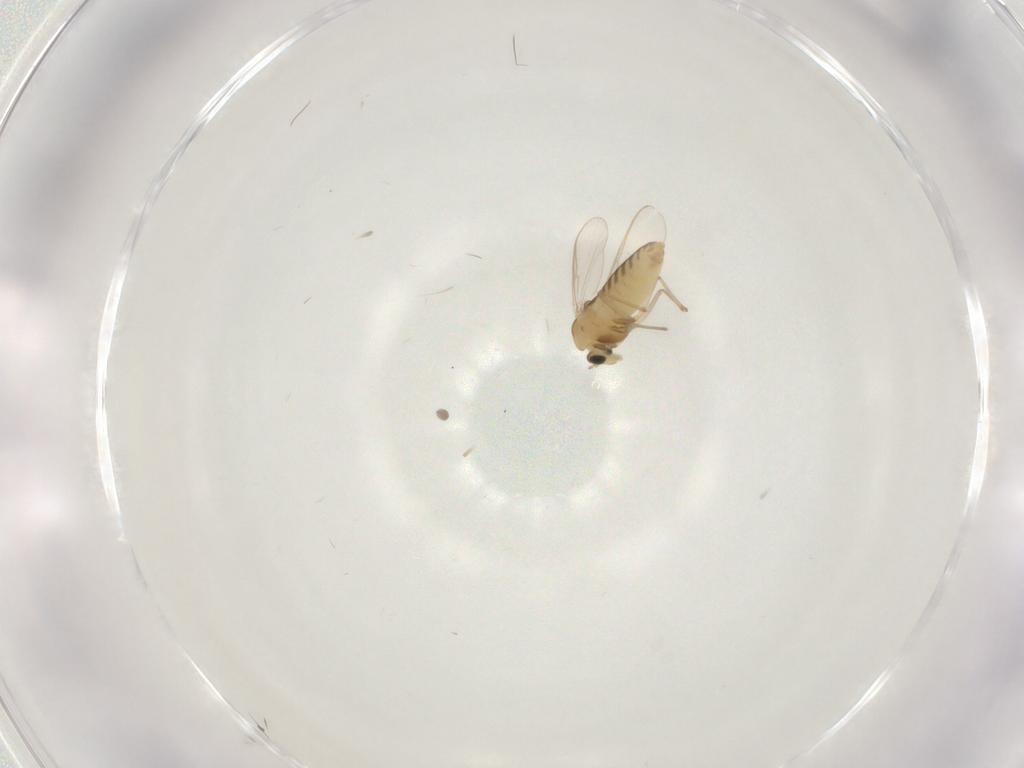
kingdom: Animalia
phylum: Arthropoda
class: Insecta
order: Diptera
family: Chironomidae
